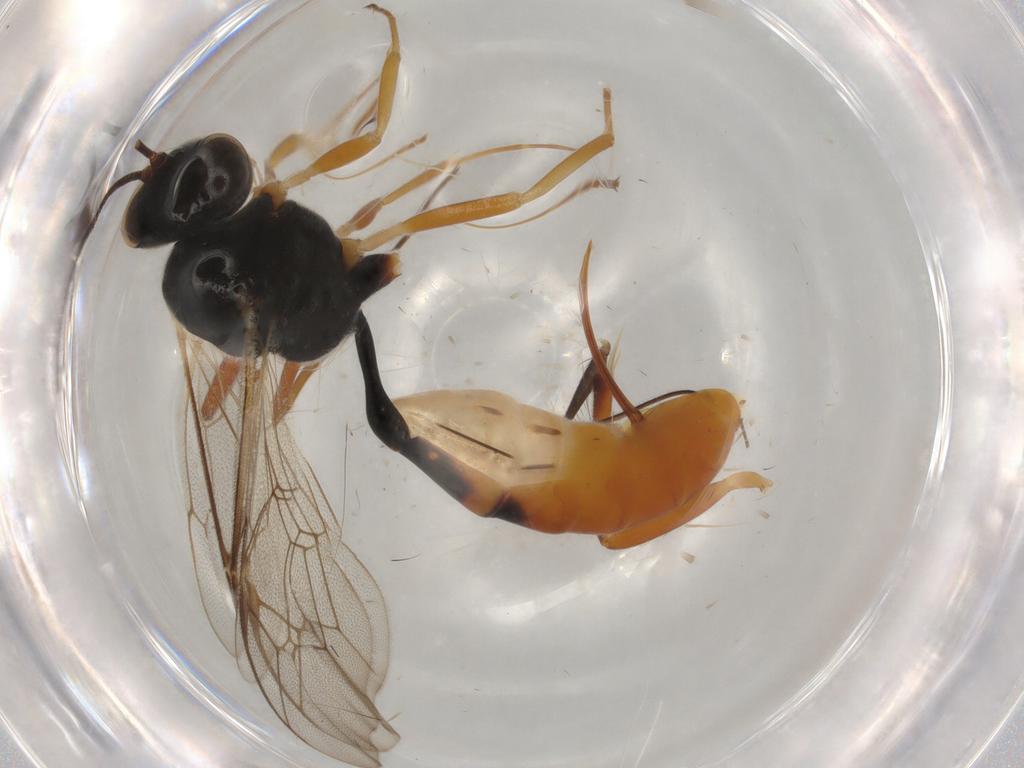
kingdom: Animalia
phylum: Arthropoda
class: Insecta
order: Hymenoptera
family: Ichneumonidae
